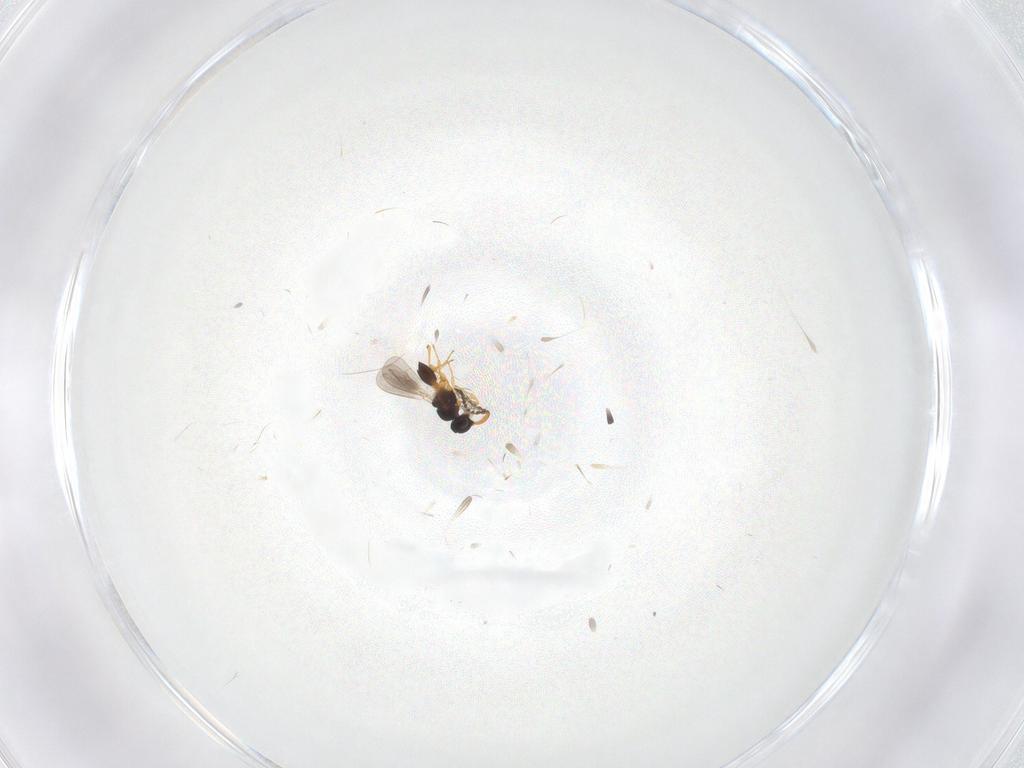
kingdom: Animalia
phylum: Arthropoda
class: Insecta
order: Diptera
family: Cecidomyiidae
